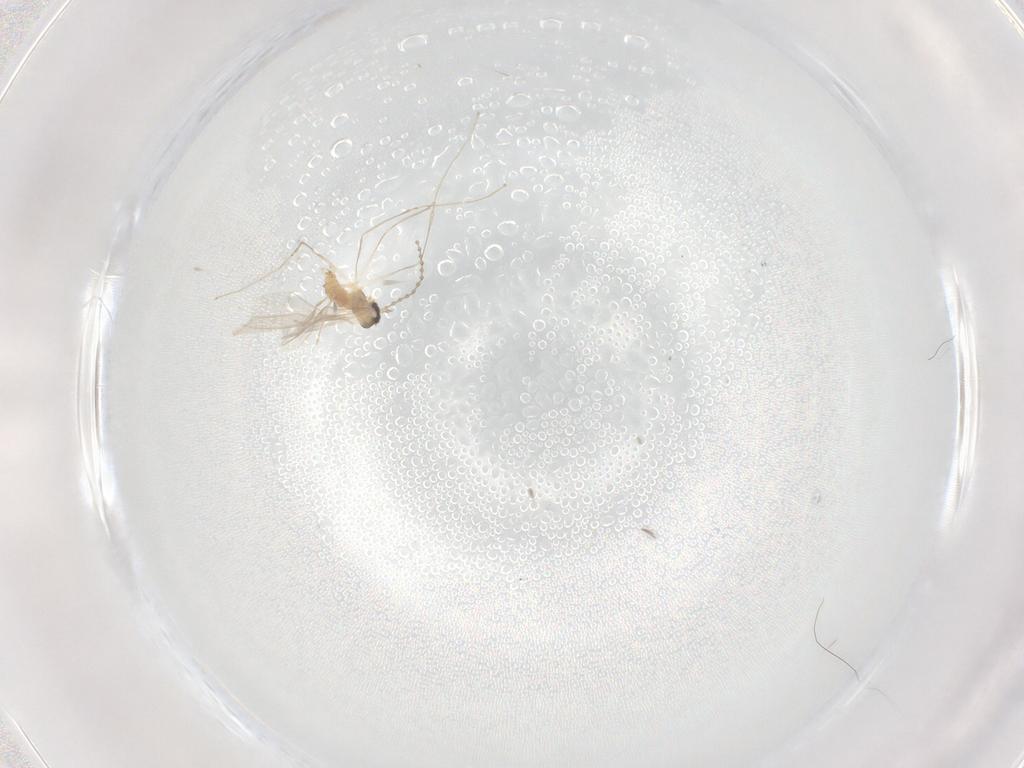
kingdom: Animalia
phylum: Arthropoda
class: Insecta
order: Diptera
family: Cecidomyiidae
